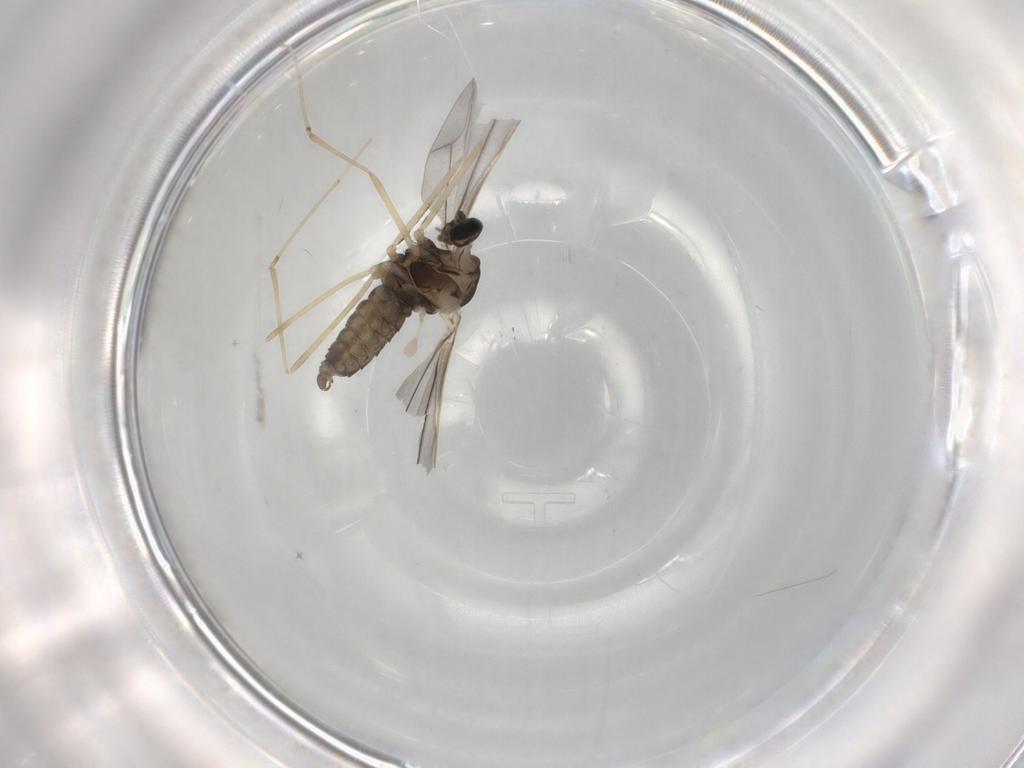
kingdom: Animalia
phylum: Arthropoda
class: Insecta
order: Diptera
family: Cecidomyiidae
